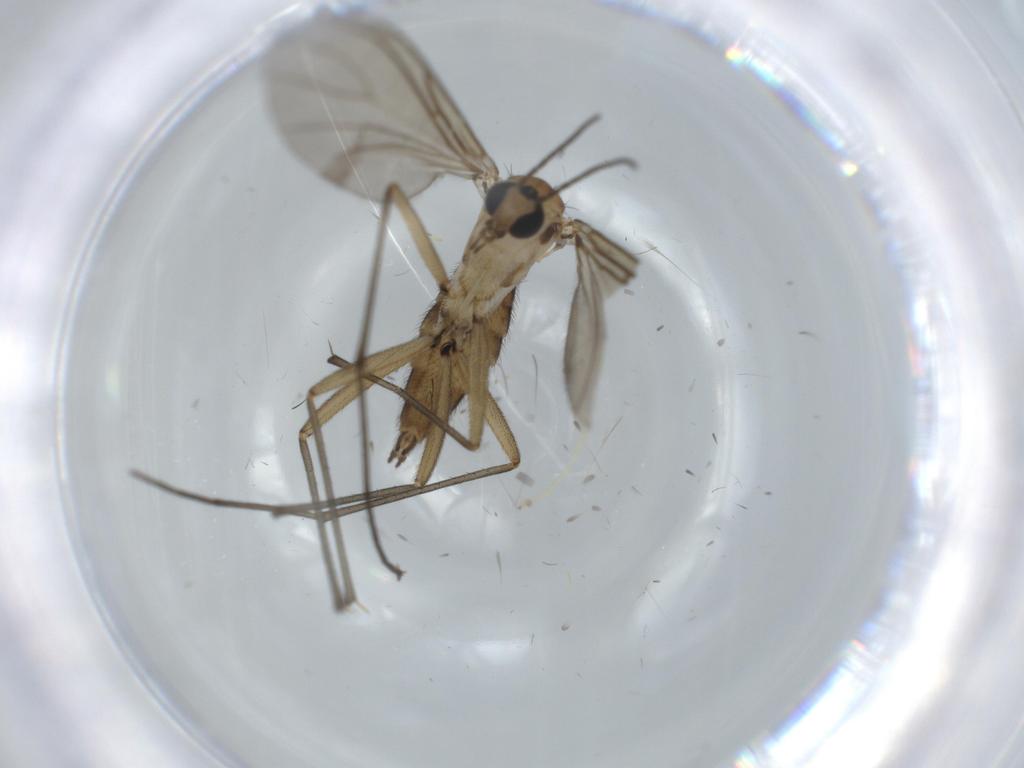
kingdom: Animalia
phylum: Arthropoda
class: Insecta
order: Diptera
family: Sciaridae
